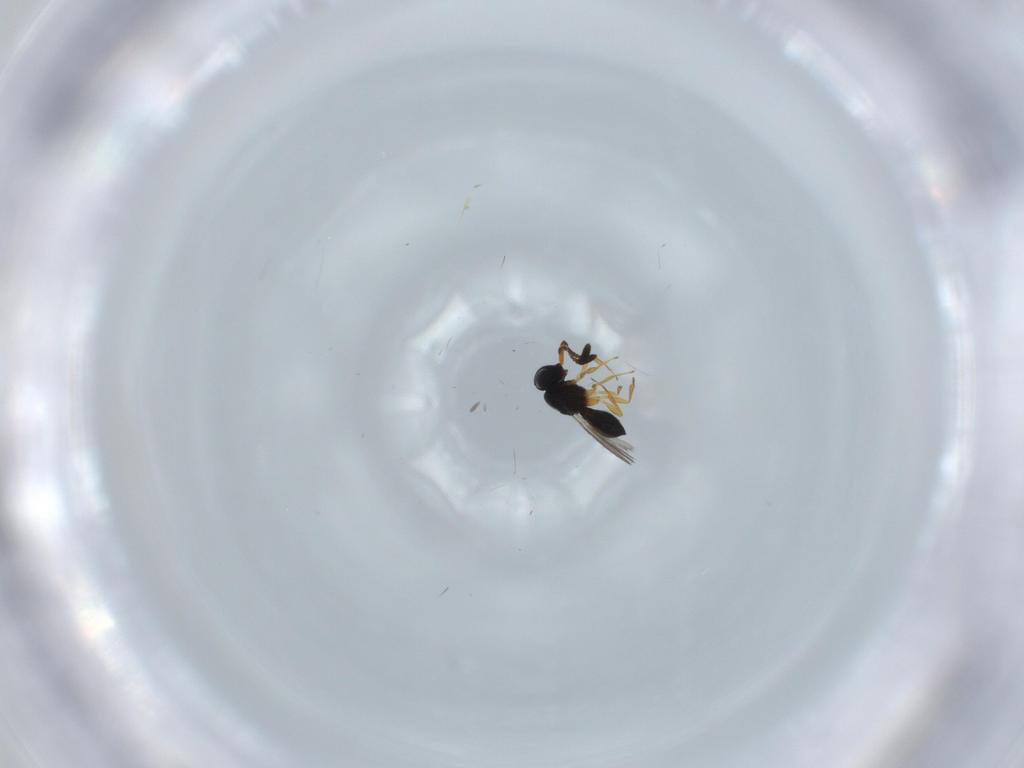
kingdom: Animalia
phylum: Arthropoda
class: Insecta
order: Hymenoptera
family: Scelionidae
